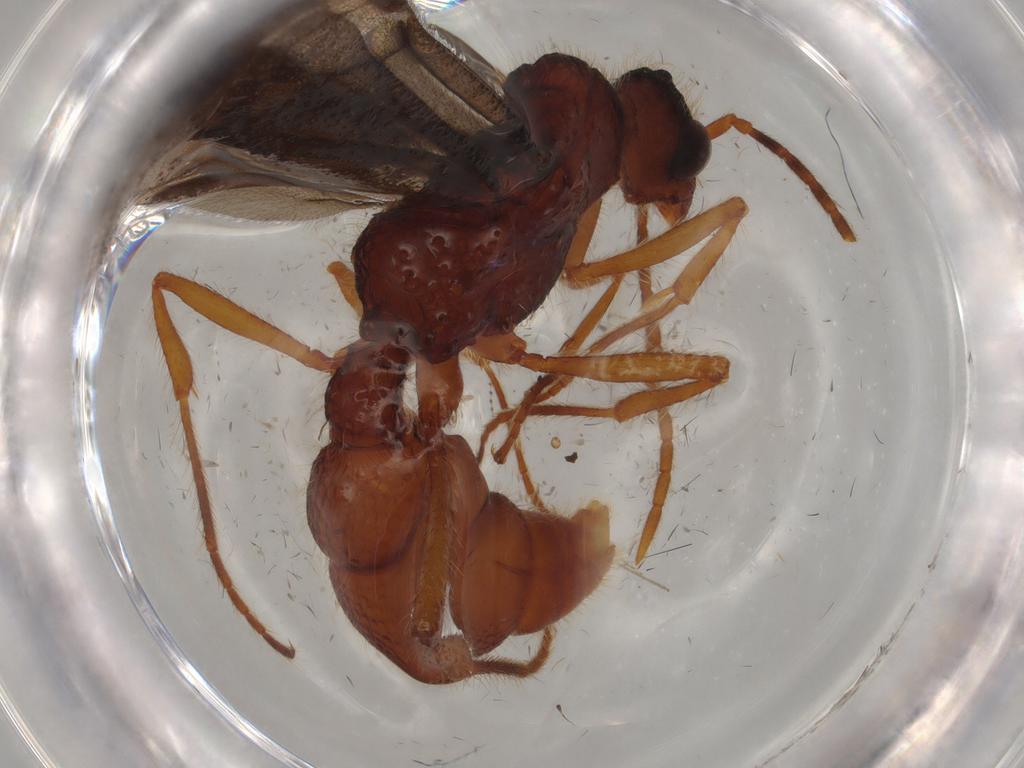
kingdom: Animalia
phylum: Arthropoda
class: Insecta
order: Hymenoptera
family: Formicidae
